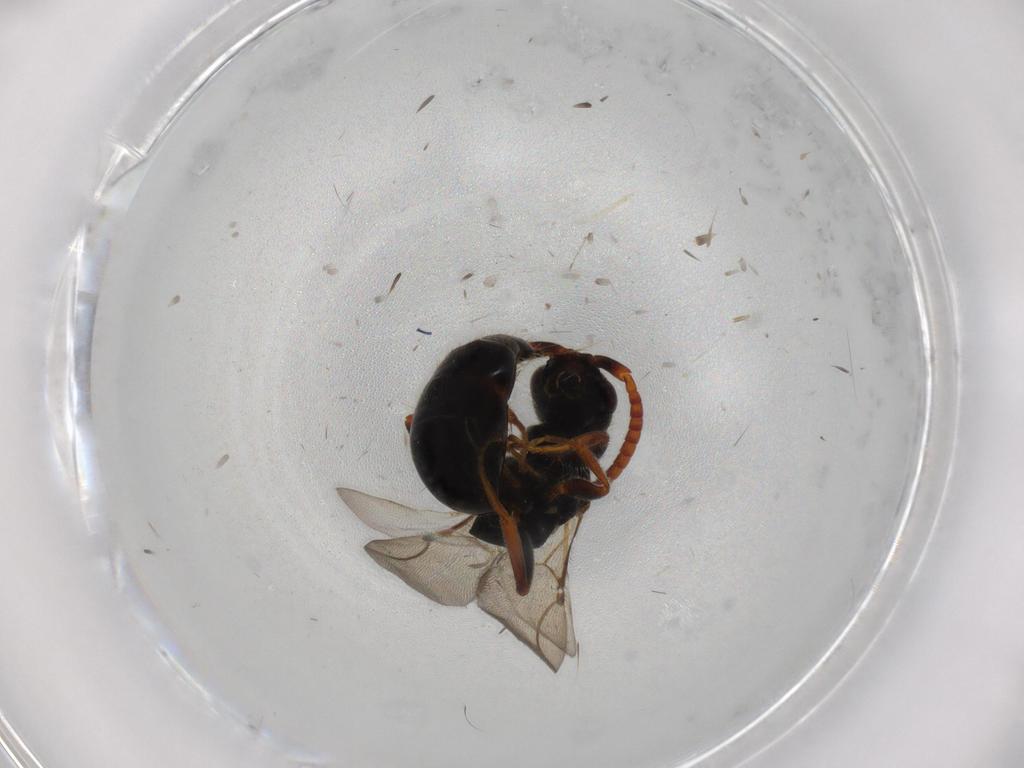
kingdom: Animalia
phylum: Arthropoda
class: Insecta
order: Hymenoptera
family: Bethylidae
